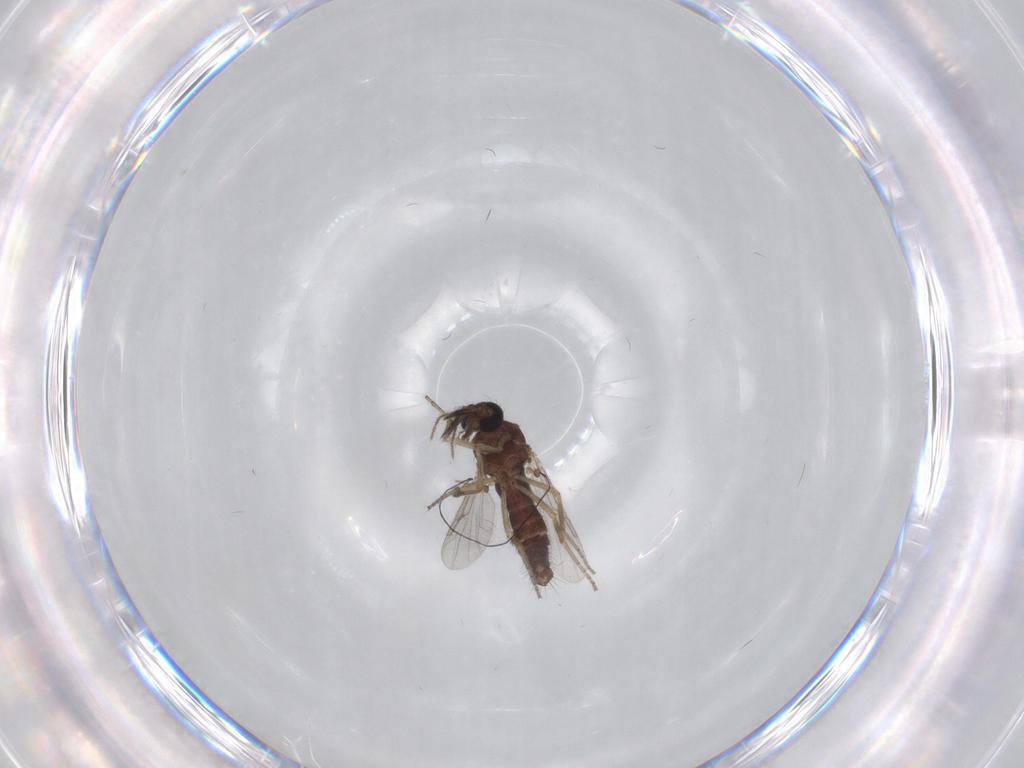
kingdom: Animalia
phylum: Arthropoda
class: Insecta
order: Diptera
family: Ceratopogonidae
